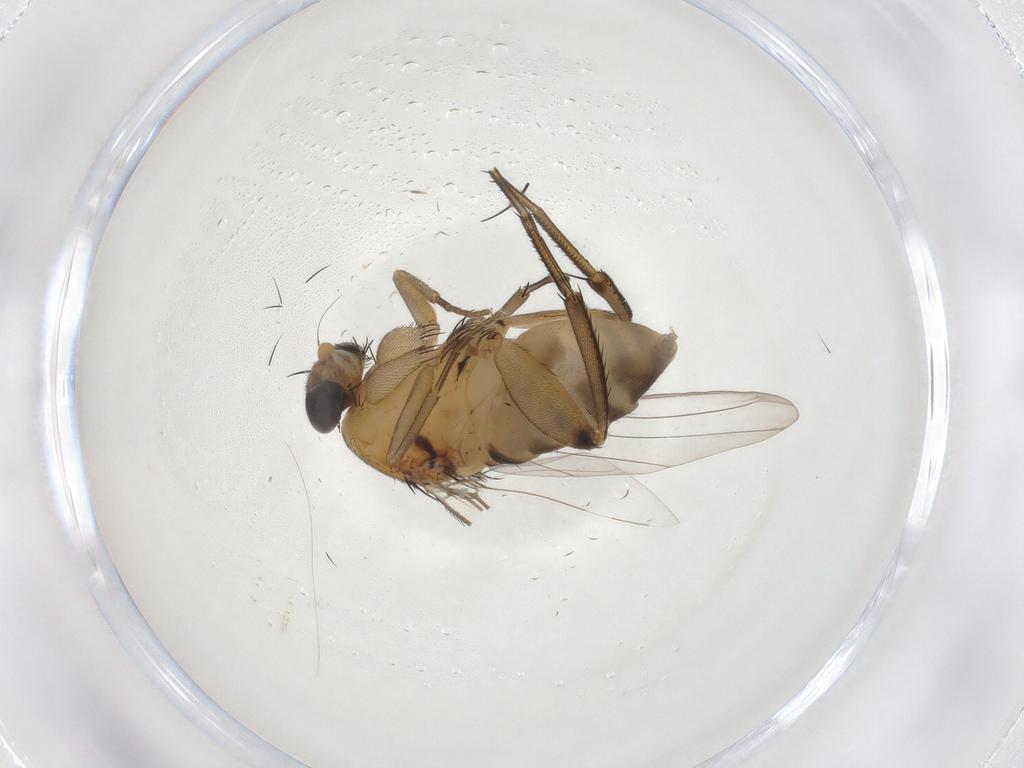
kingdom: Animalia
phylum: Arthropoda
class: Insecta
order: Diptera
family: Phoridae
